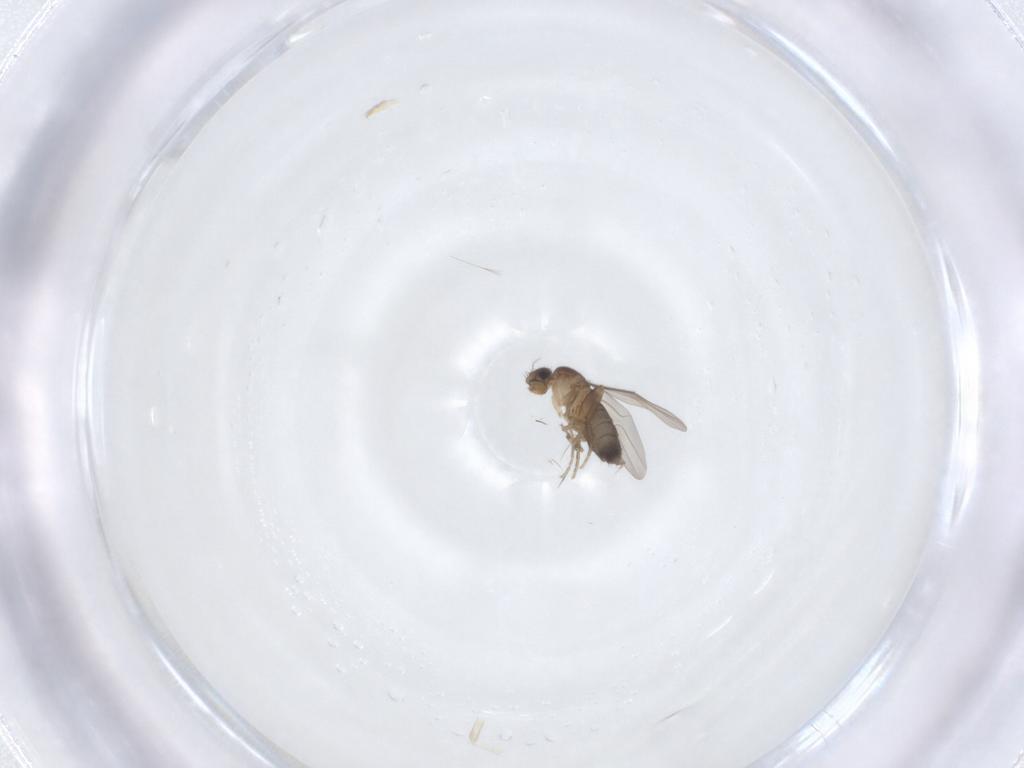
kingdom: Animalia
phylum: Arthropoda
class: Insecta
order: Diptera
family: Phoridae
